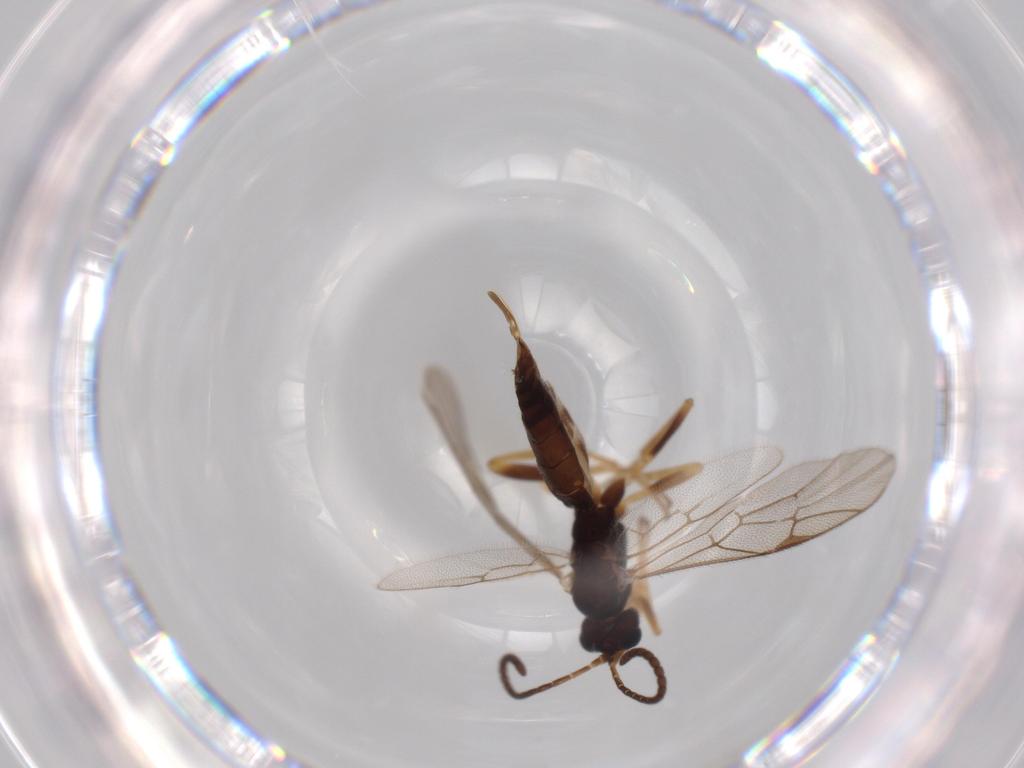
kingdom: Animalia
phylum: Arthropoda
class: Insecta
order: Hymenoptera
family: Ichneumonidae
